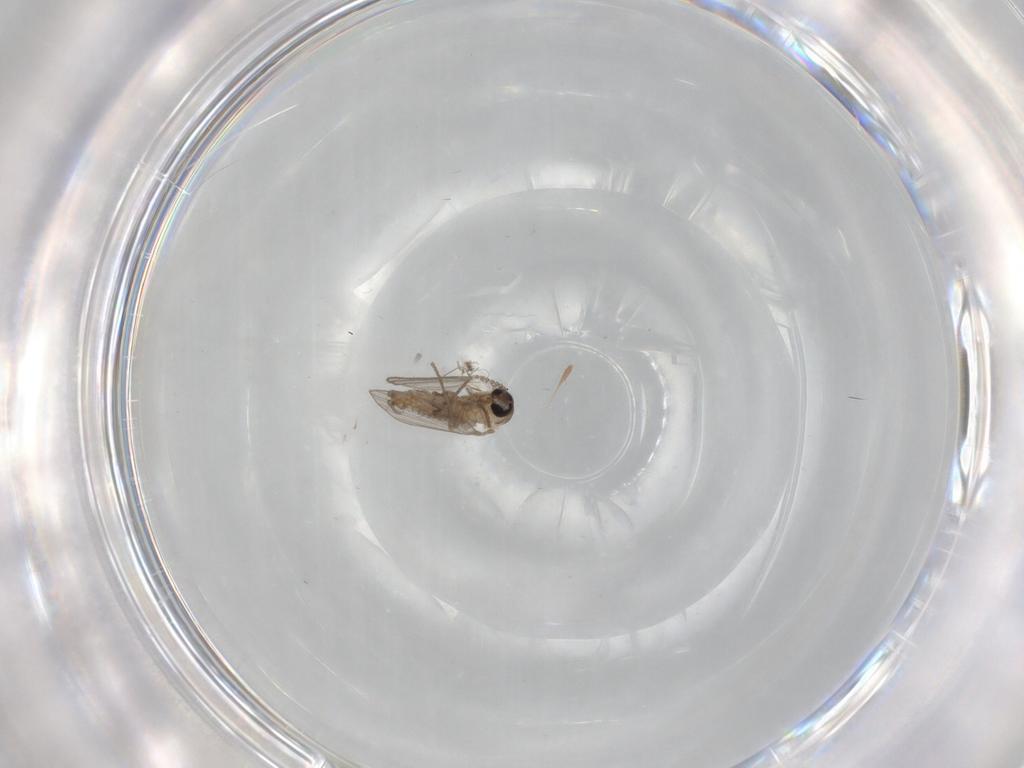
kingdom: Animalia
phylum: Arthropoda
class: Insecta
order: Diptera
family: Psychodidae
